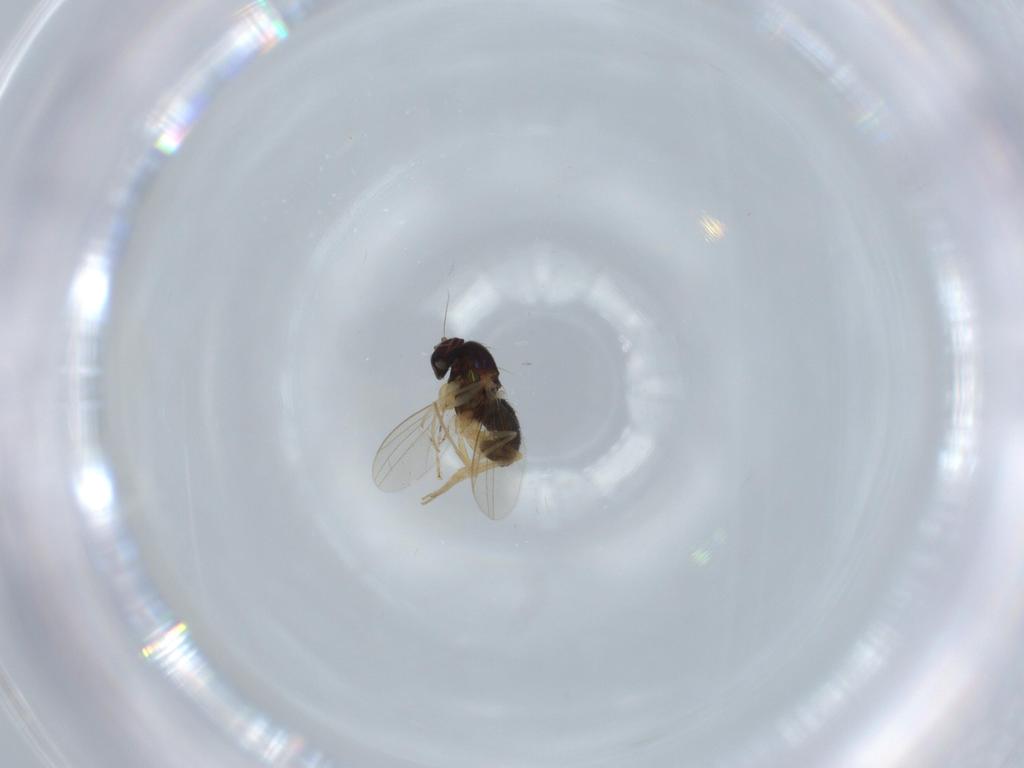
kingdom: Animalia
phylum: Arthropoda
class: Insecta
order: Diptera
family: Dolichopodidae
